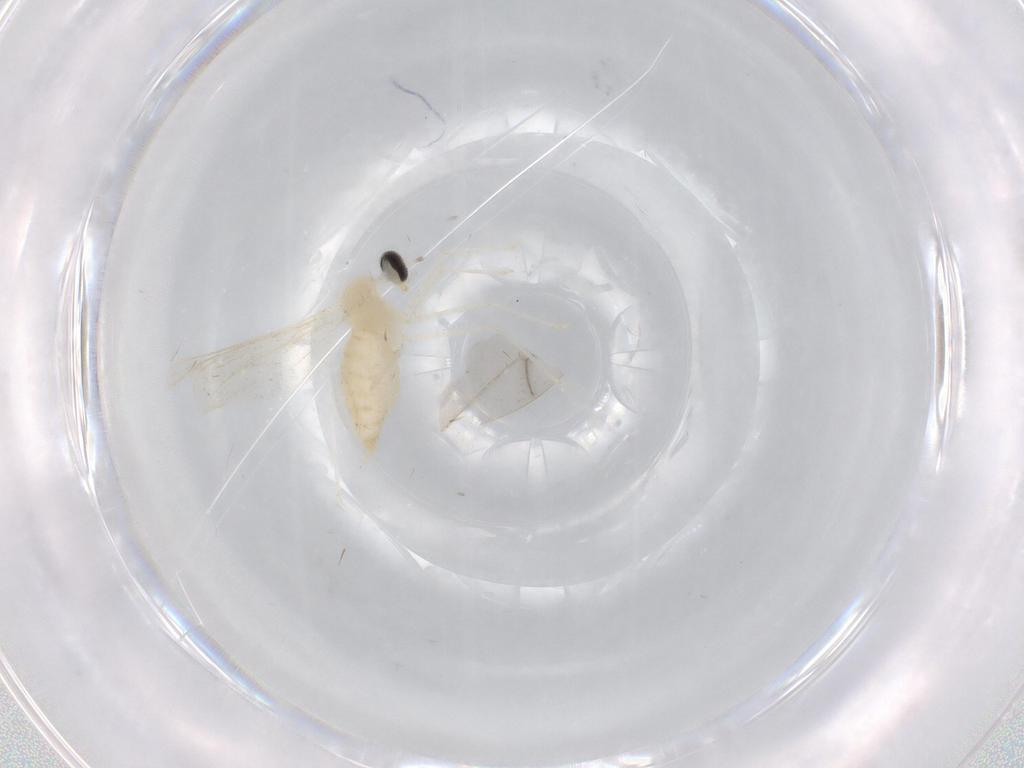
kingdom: Animalia
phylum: Arthropoda
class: Insecta
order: Diptera
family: Cecidomyiidae
